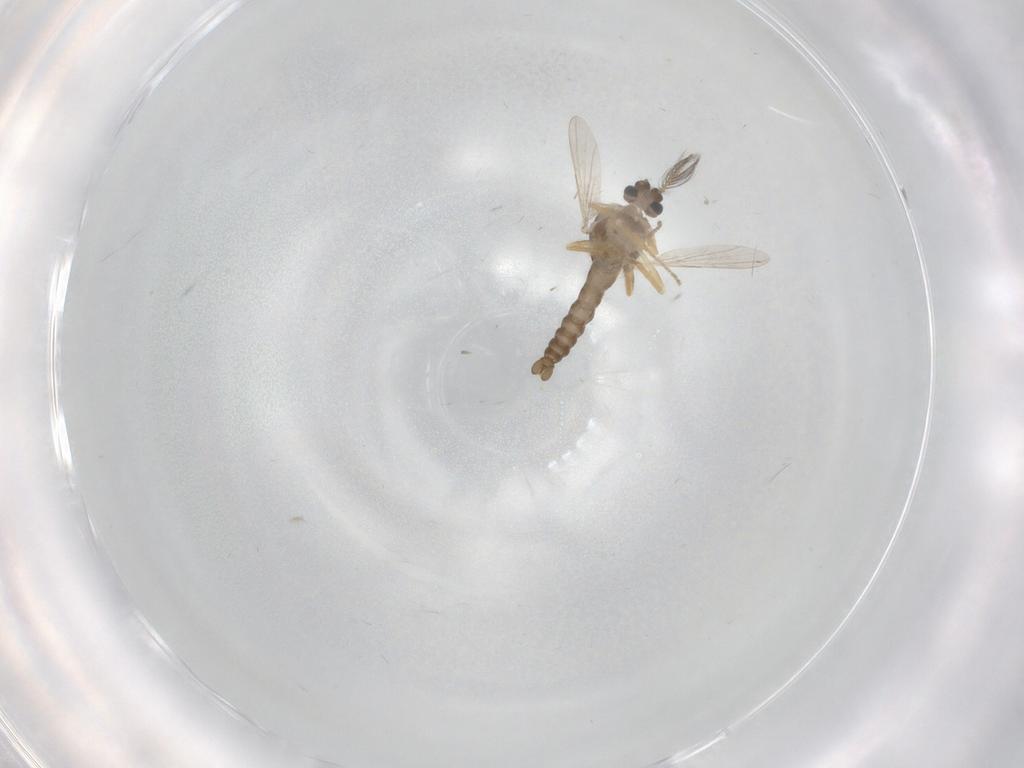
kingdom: Animalia
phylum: Arthropoda
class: Insecta
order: Diptera
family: Ceratopogonidae
